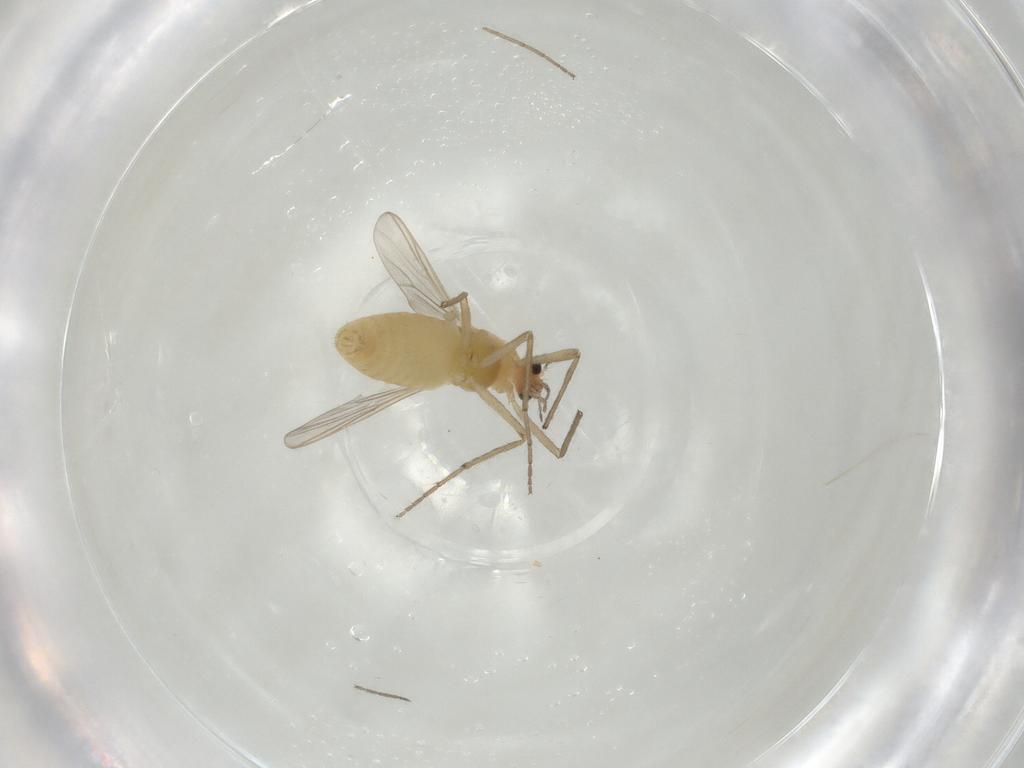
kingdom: Animalia
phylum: Arthropoda
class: Insecta
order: Diptera
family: Chironomidae
